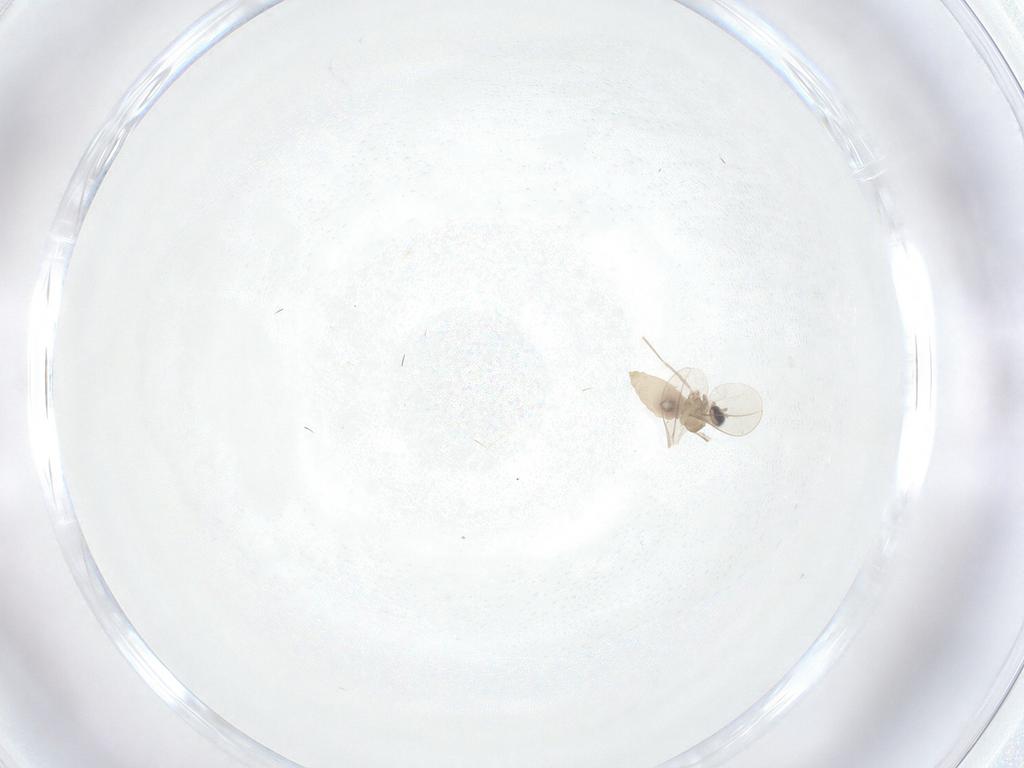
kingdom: Animalia
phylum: Arthropoda
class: Insecta
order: Diptera
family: Cecidomyiidae
